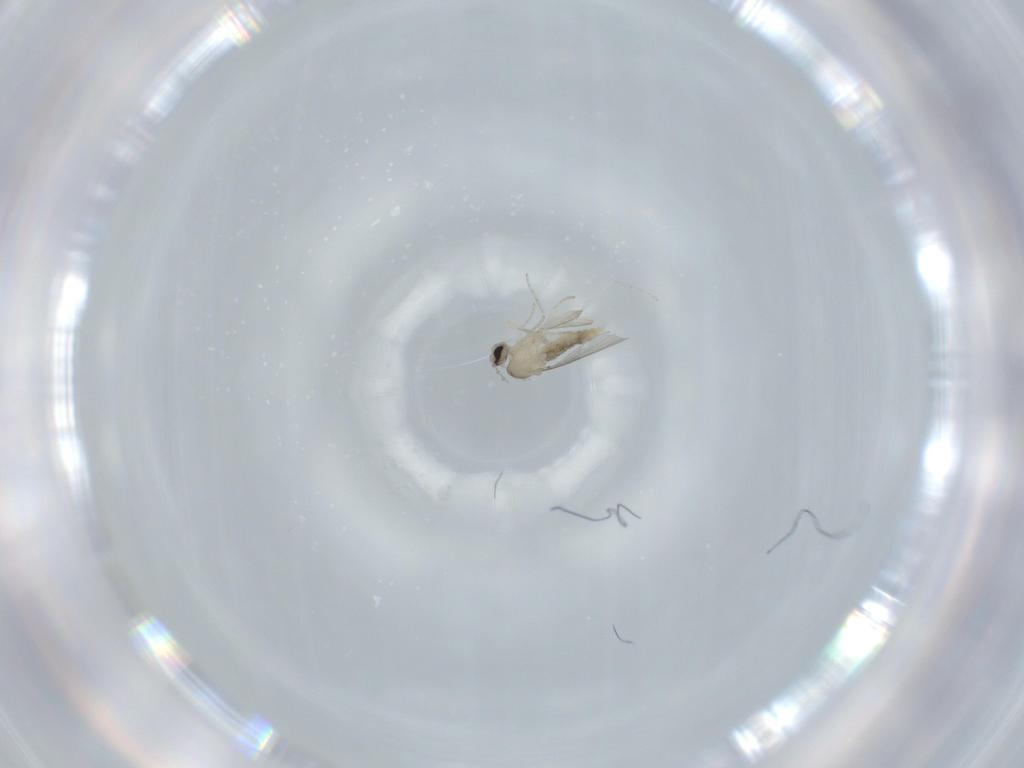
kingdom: Animalia
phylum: Arthropoda
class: Insecta
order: Diptera
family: Cecidomyiidae
